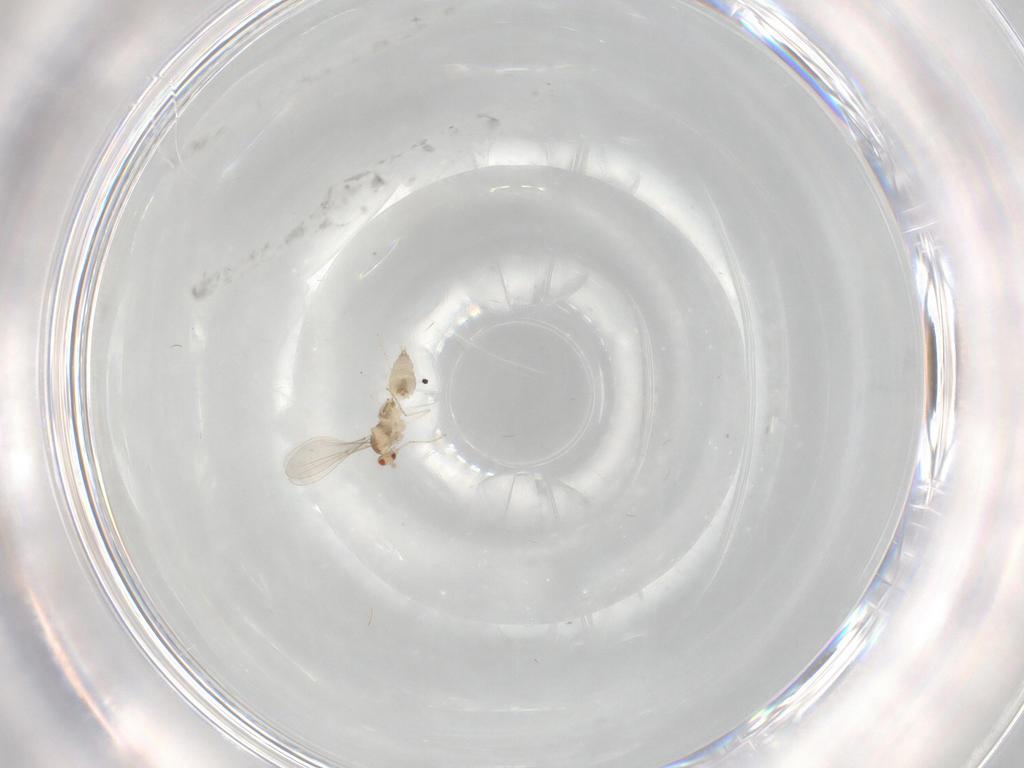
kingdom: Animalia
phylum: Arthropoda
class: Insecta
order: Diptera
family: Cecidomyiidae
